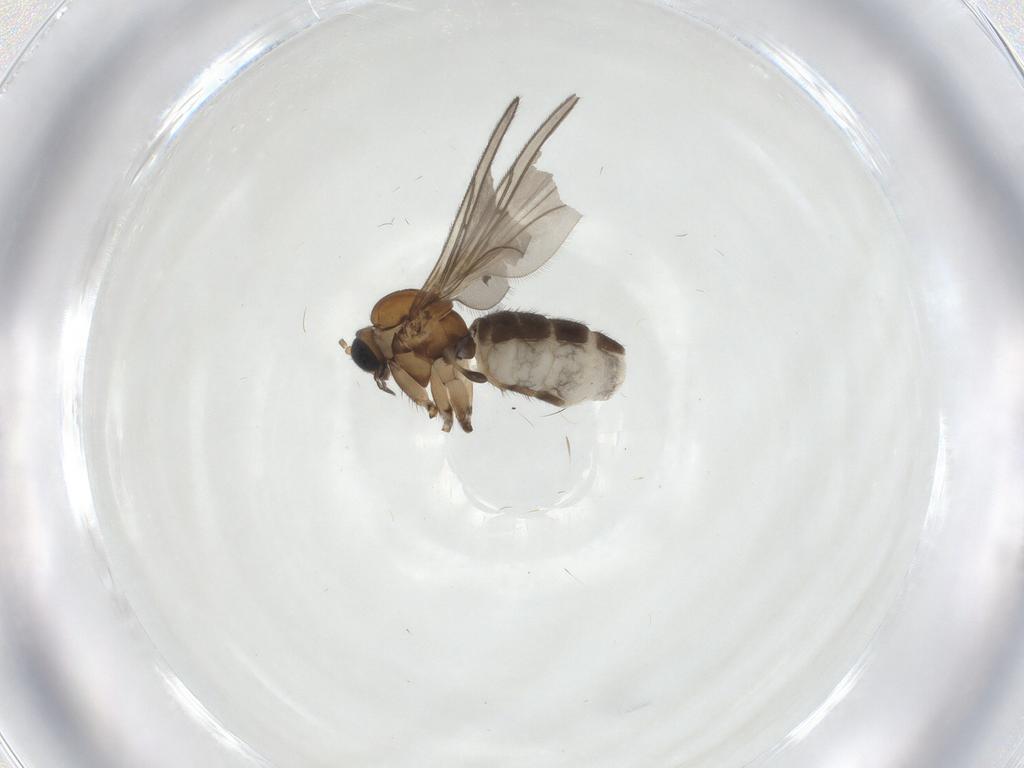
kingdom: Animalia
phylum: Arthropoda
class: Insecta
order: Diptera
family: Sciaridae
